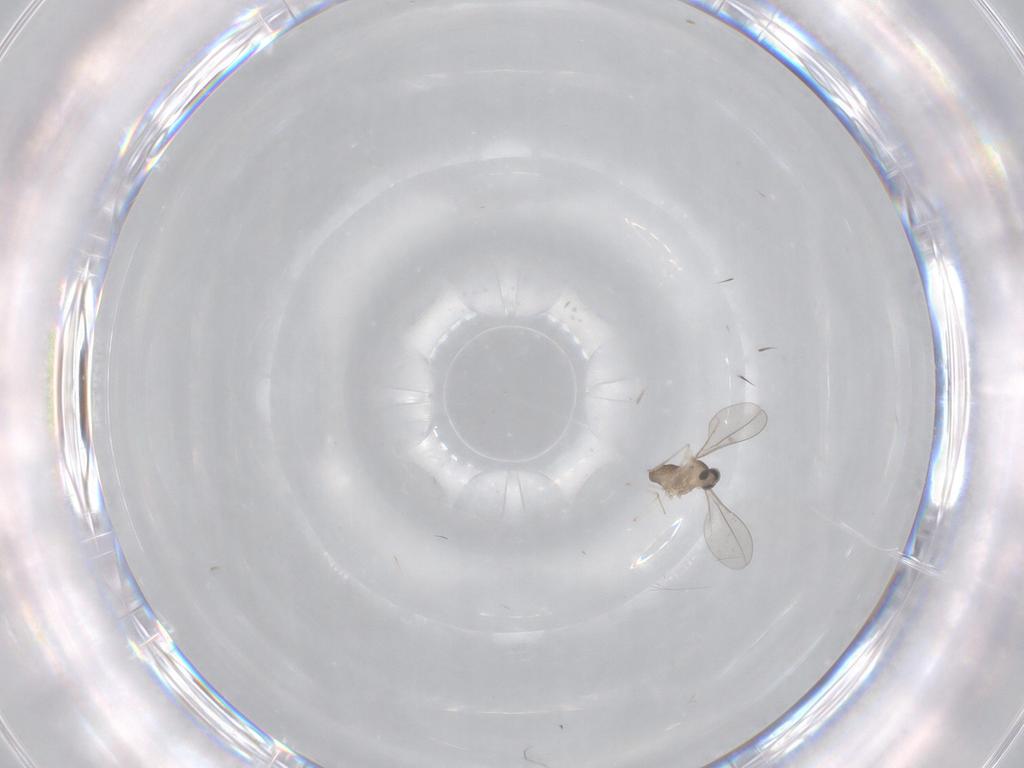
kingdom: Animalia
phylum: Arthropoda
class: Insecta
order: Diptera
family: Cecidomyiidae
